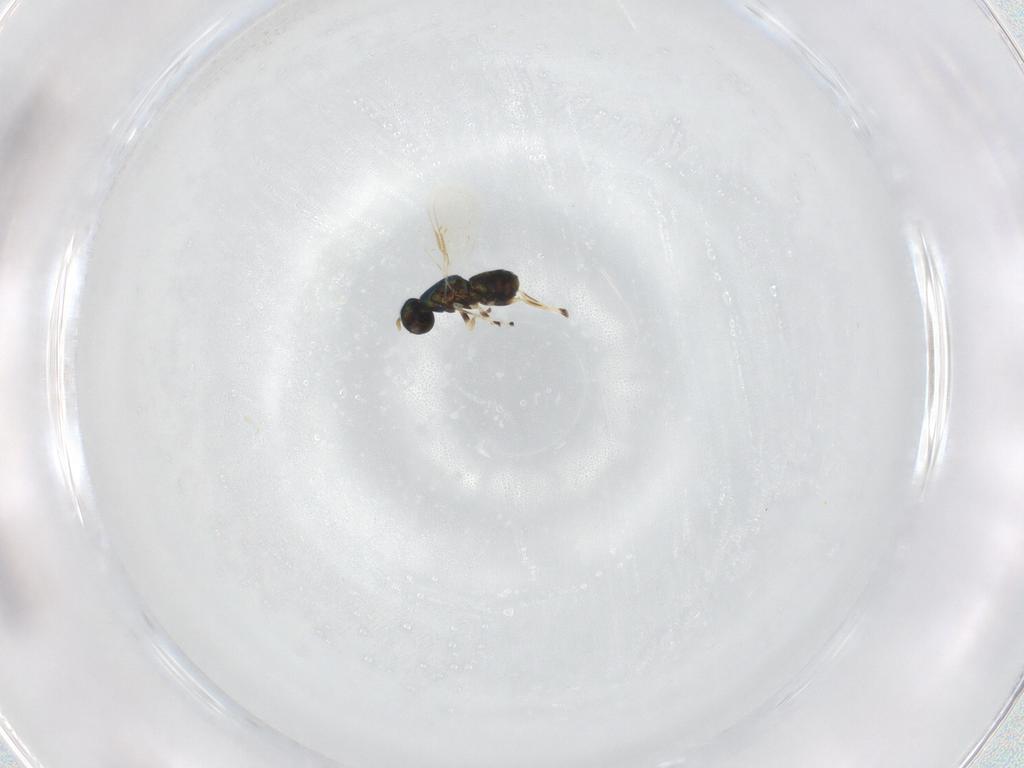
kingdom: Animalia
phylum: Arthropoda
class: Insecta
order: Hymenoptera
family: Eulophidae
